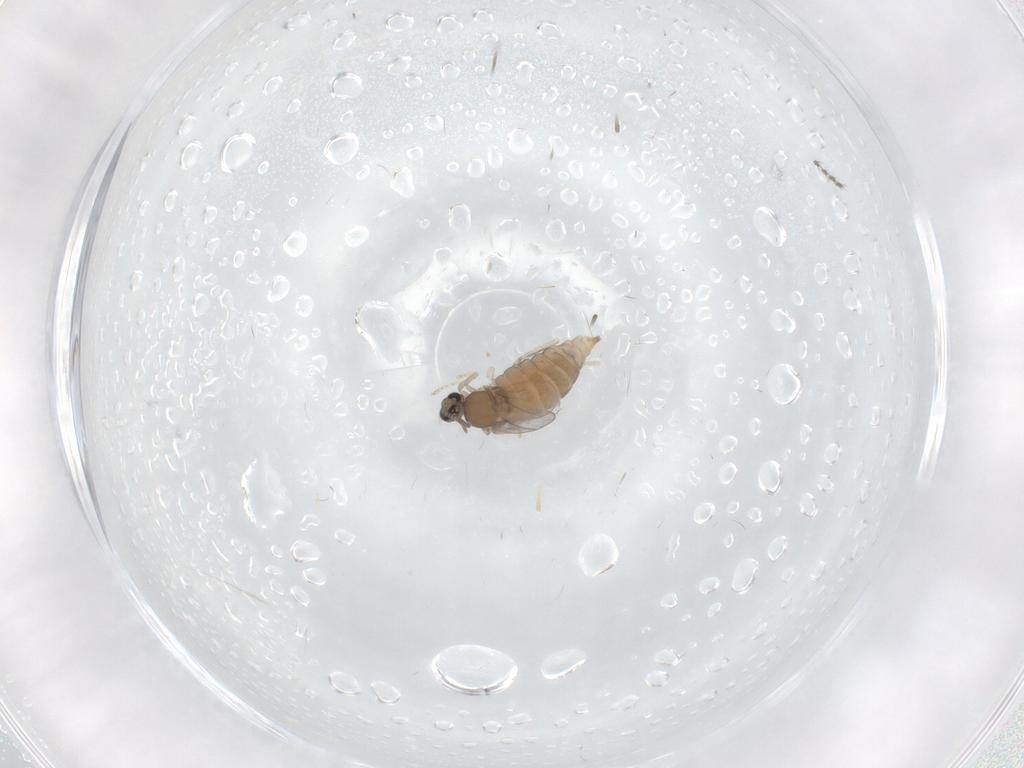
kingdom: Animalia
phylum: Arthropoda
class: Insecta
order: Diptera
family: Cecidomyiidae
